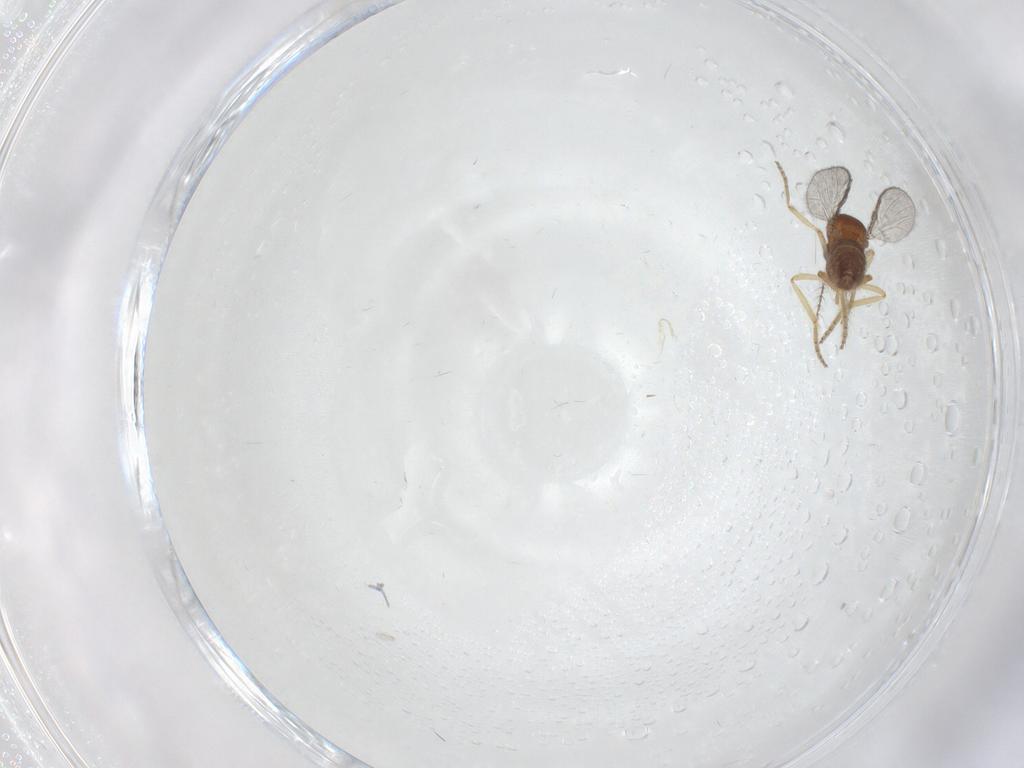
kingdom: Animalia
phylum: Arthropoda
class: Insecta
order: Diptera
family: Ceratopogonidae
